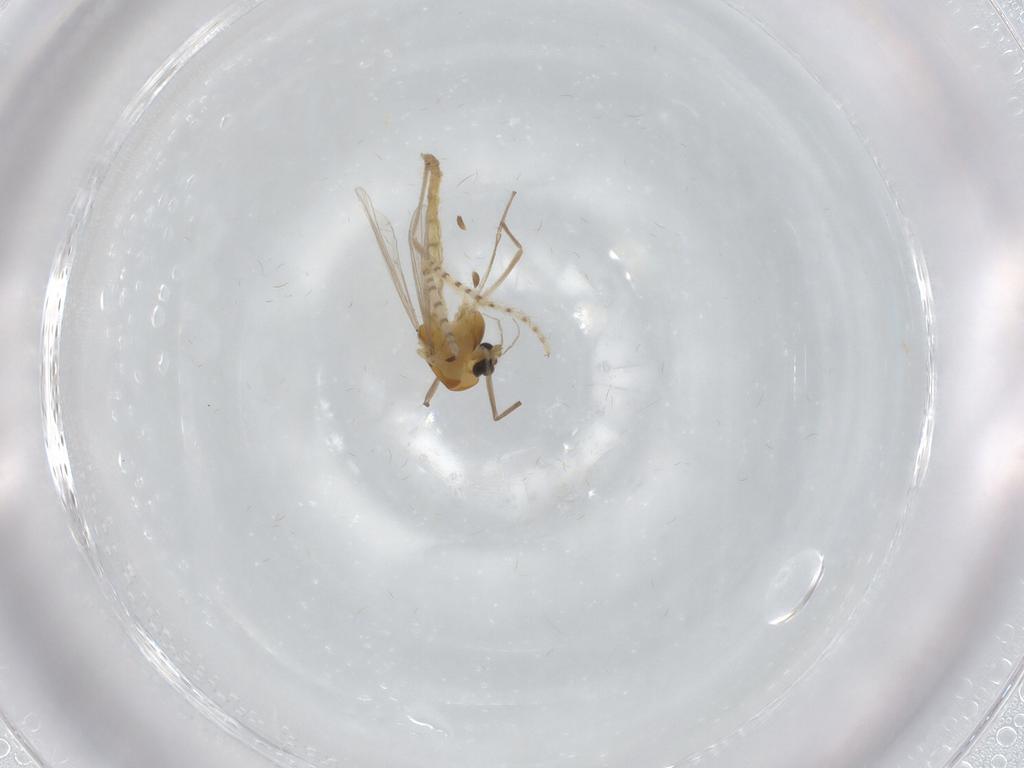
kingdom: Animalia
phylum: Arthropoda
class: Insecta
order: Diptera
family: Chironomidae
